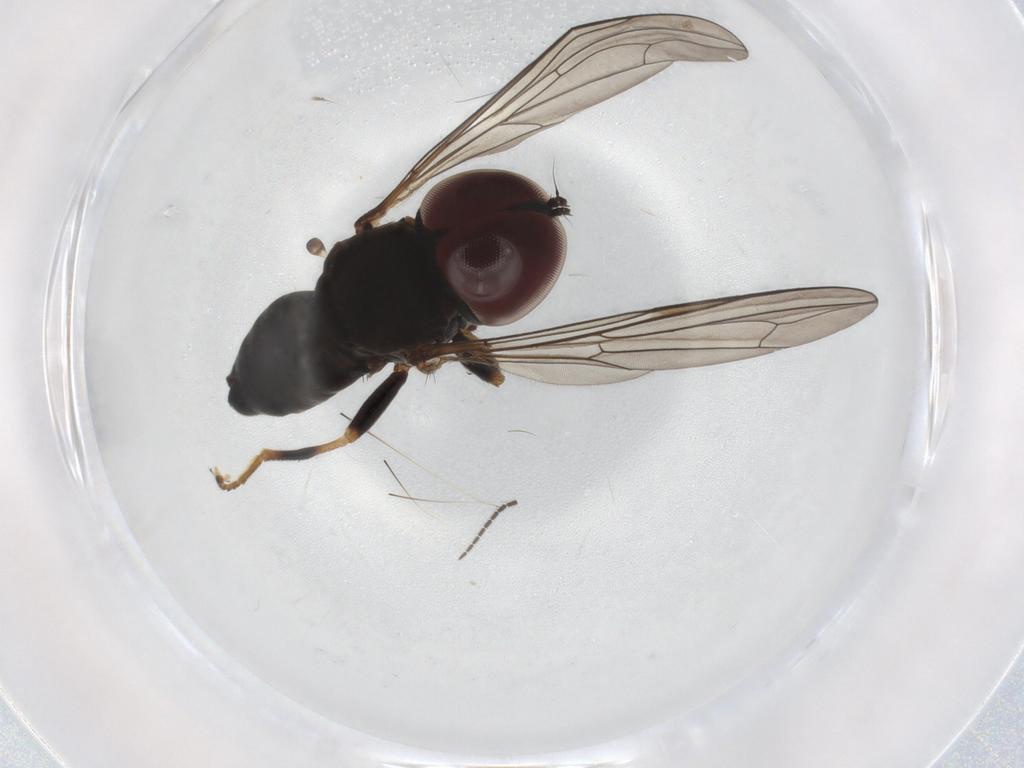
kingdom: Animalia
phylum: Arthropoda
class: Insecta
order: Diptera
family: Pipunculidae
